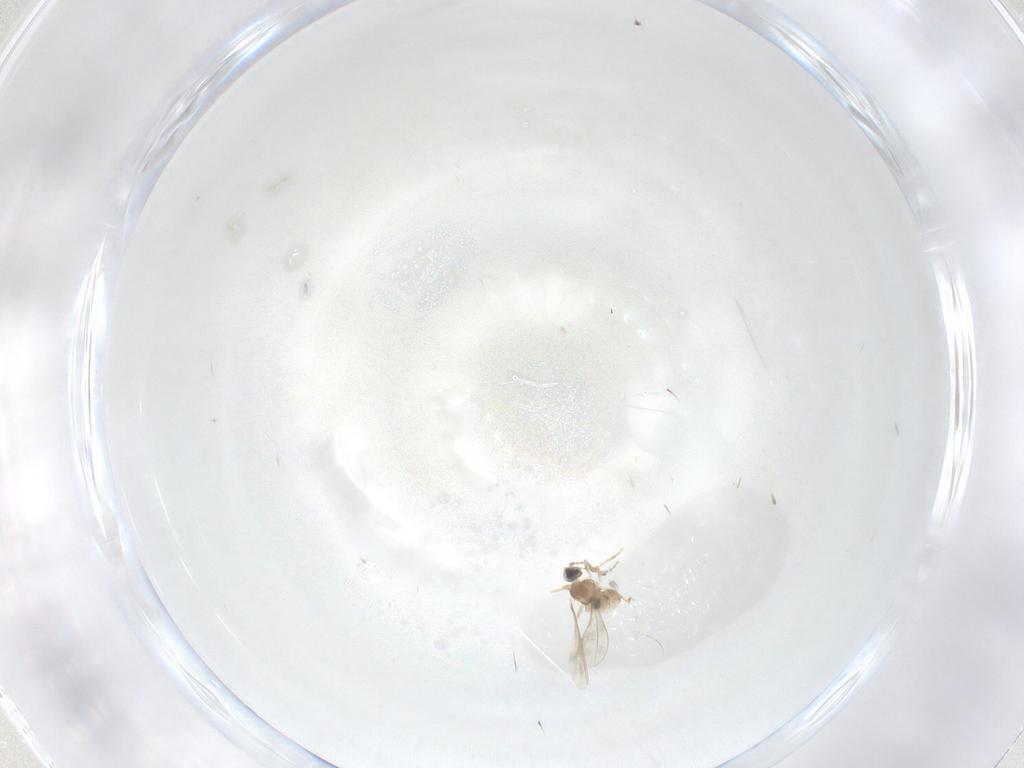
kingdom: Animalia
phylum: Arthropoda
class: Insecta
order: Diptera
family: Cecidomyiidae
